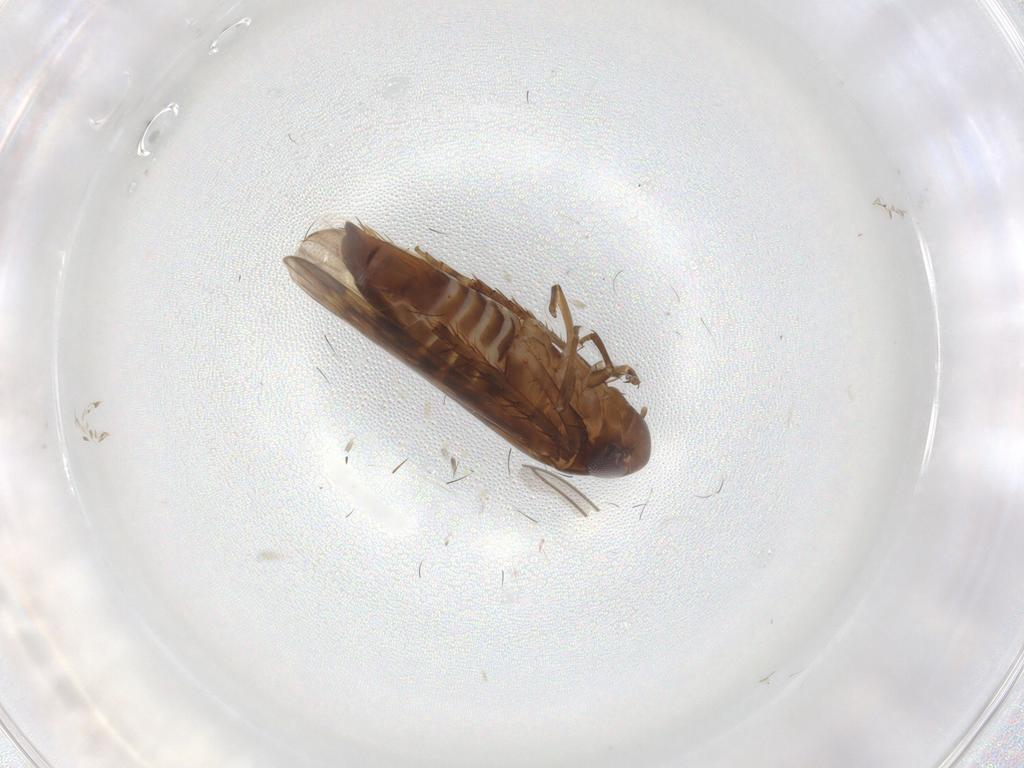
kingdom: Animalia
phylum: Arthropoda
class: Insecta
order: Hemiptera
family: Cicadellidae
